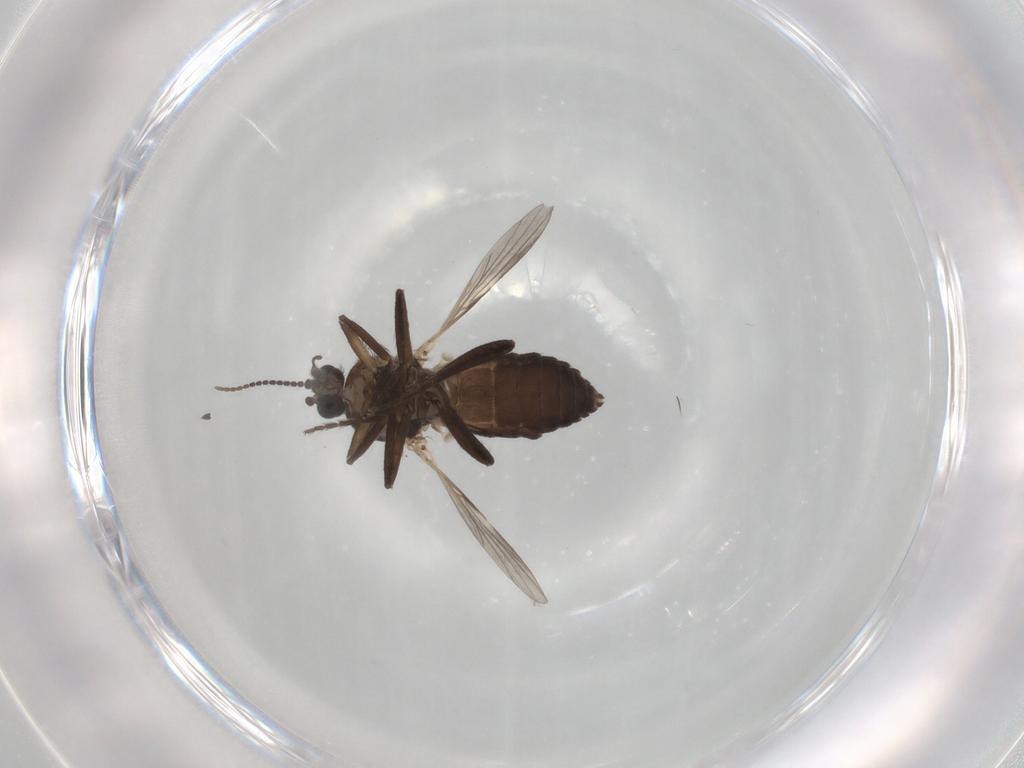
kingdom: Animalia
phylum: Arthropoda
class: Insecta
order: Diptera
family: Ceratopogonidae
